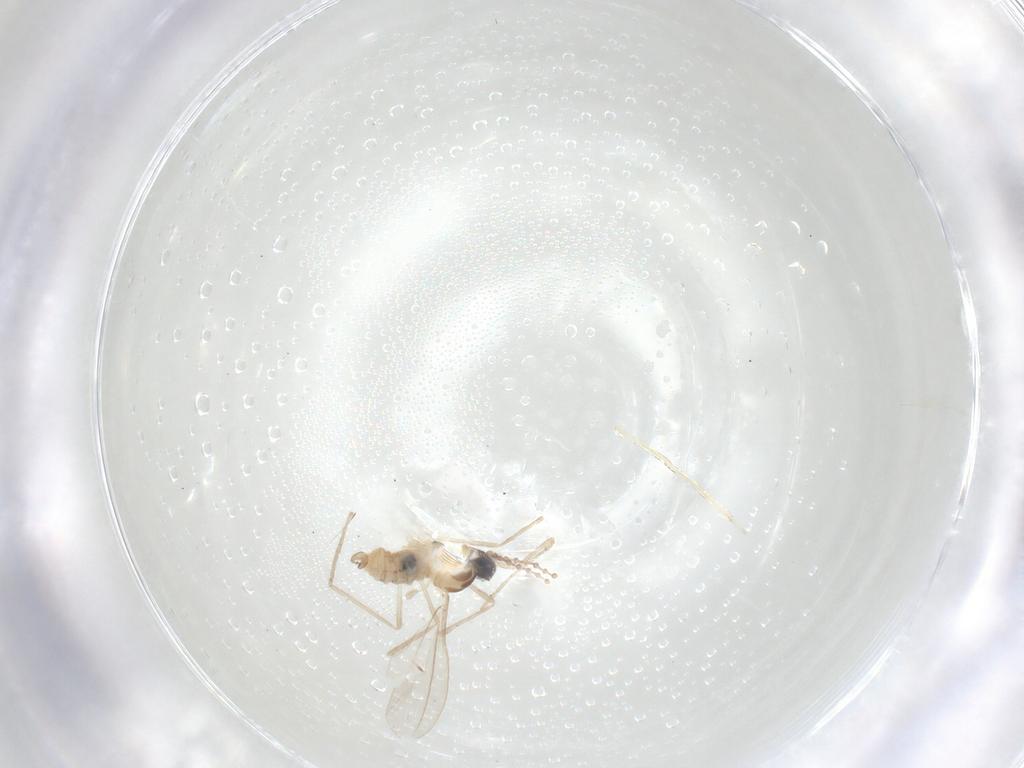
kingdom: Animalia
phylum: Arthropoda
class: Insecta
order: Diptera
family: Cecidomyiidae
